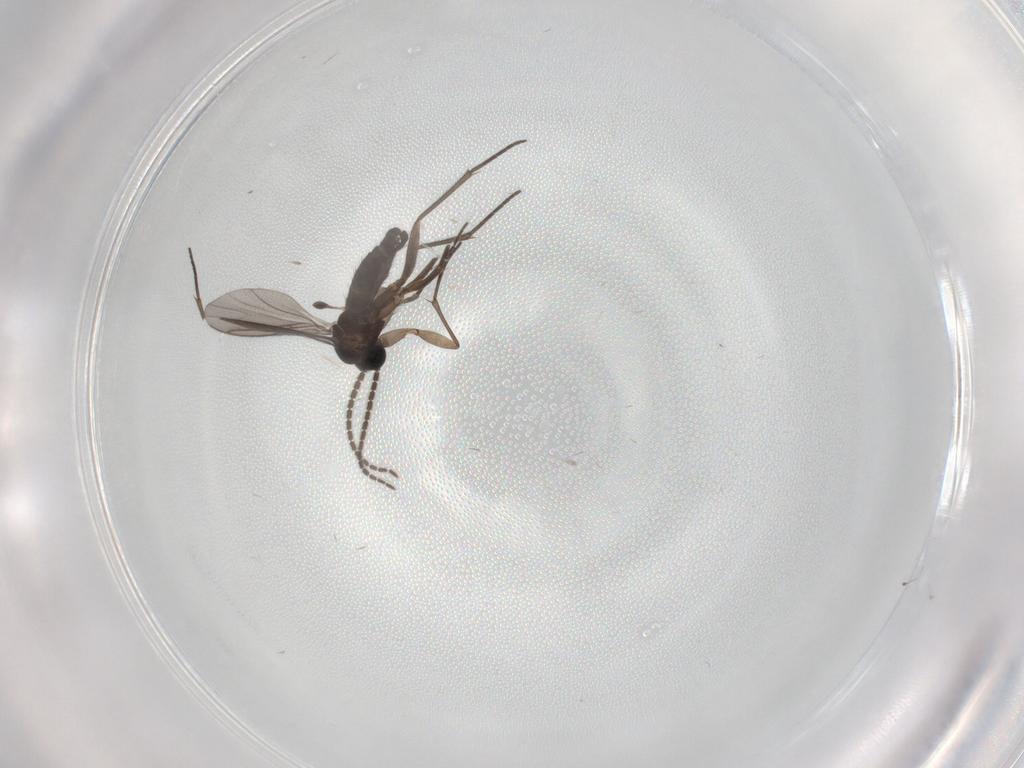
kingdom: Animalia
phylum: Arthropoda
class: Insecta
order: Diptera
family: Sciaridae
